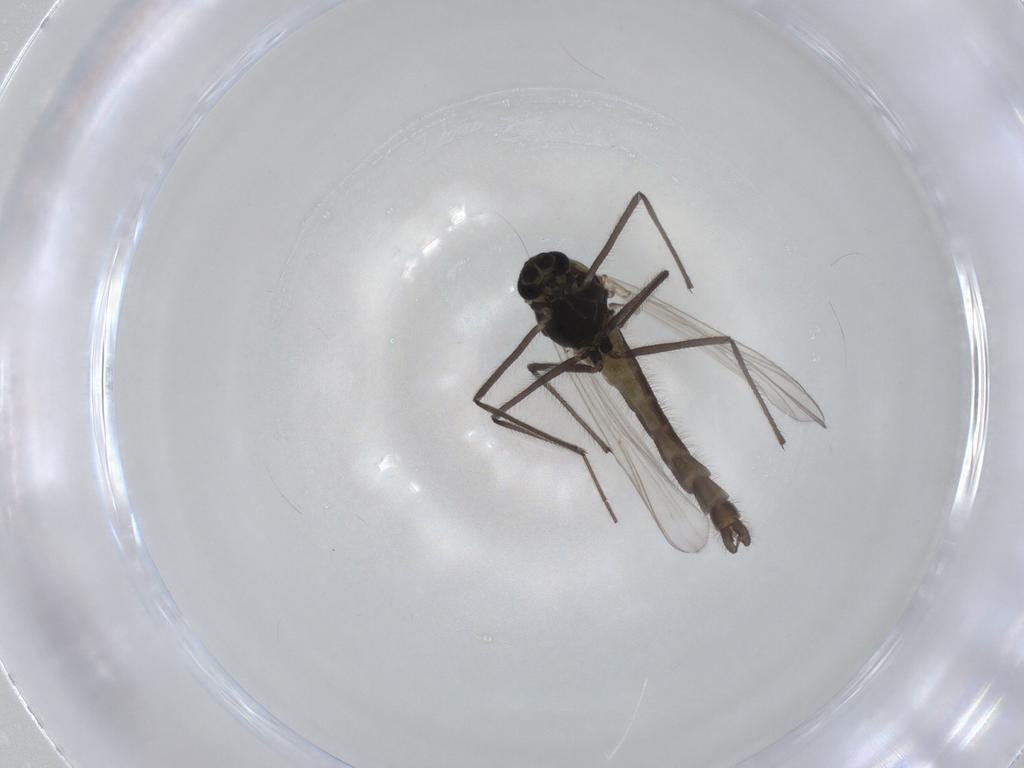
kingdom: Animalia
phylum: Arthropoda
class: Insecta
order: Diptera
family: Chironomidae
